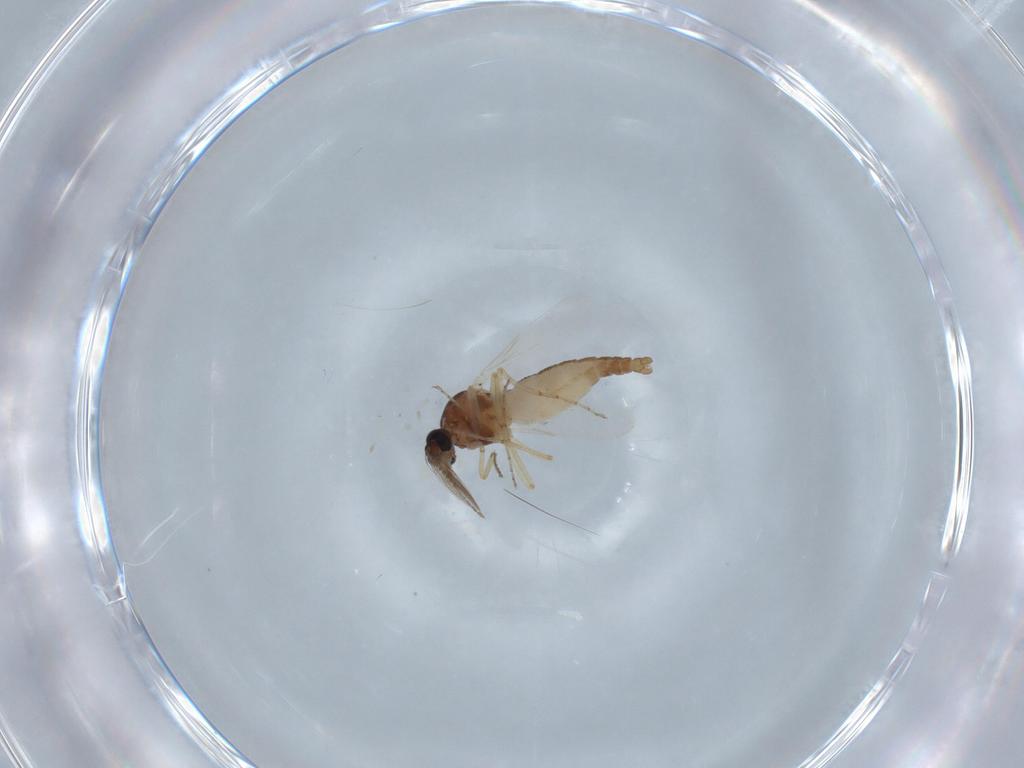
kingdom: Animalia
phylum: Arthropoda
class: Insecta
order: Diptera
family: Ceratopogonidae
